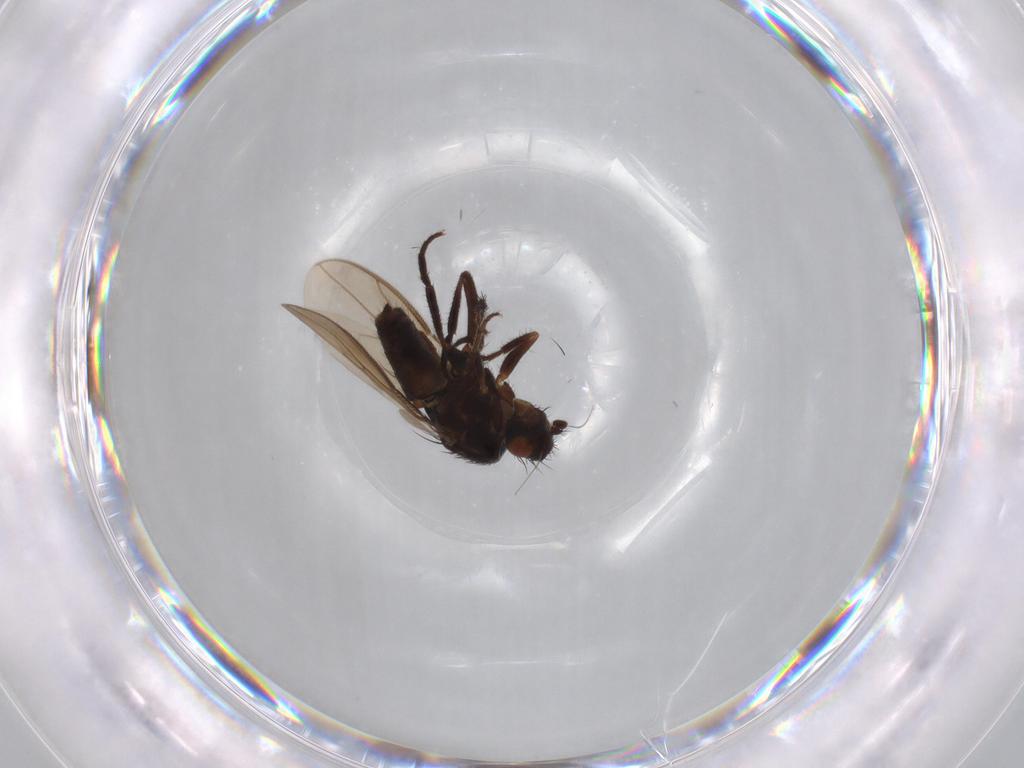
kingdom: Animalia
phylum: Arthropoda
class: Insecta
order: Diptera
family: Sphaeroceridae
